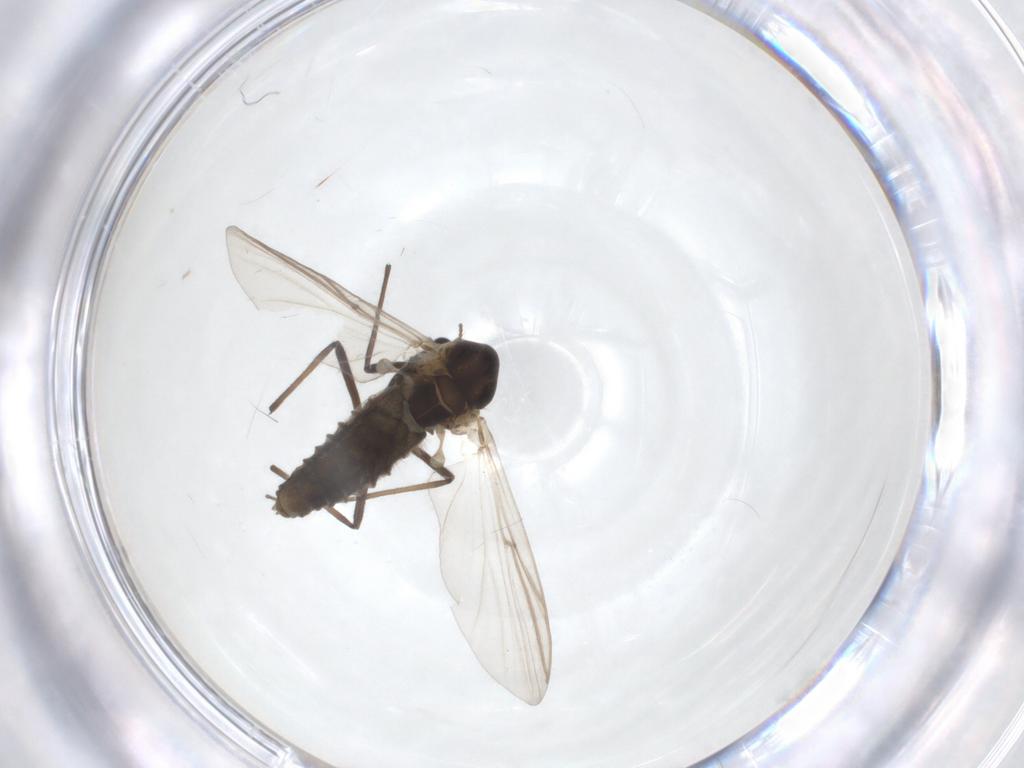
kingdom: Animalia
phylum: Arthropoda
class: Insecta
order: Diptera
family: Chironomidae
